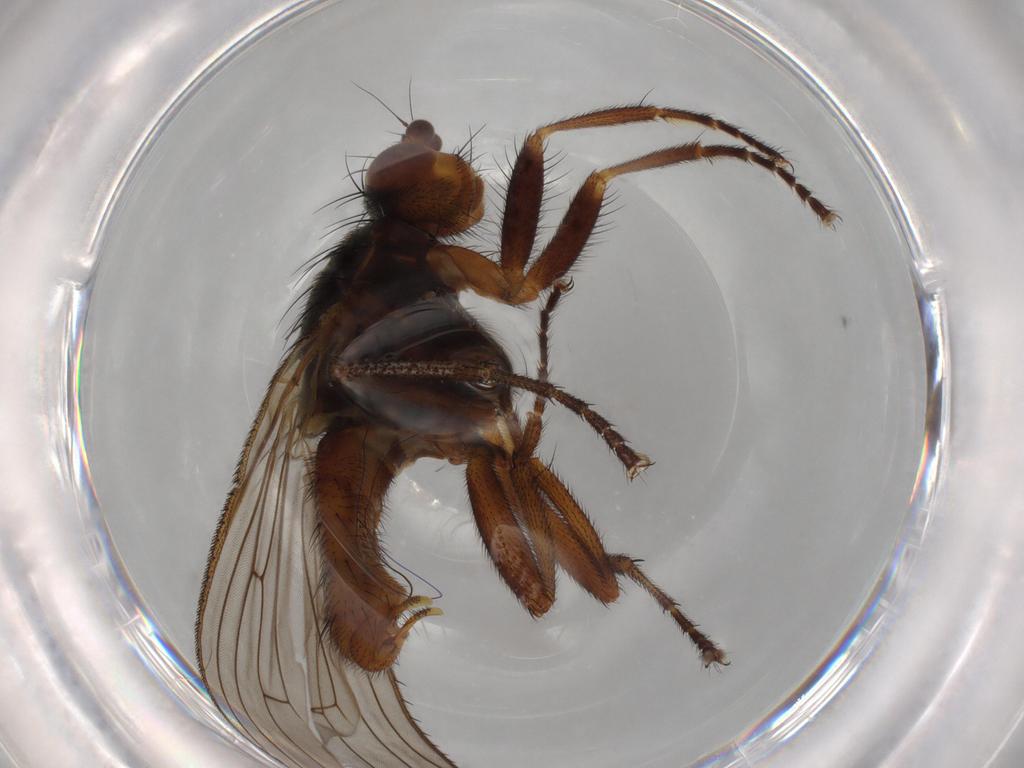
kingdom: Animalia
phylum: Arthropoda
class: Insecta
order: Diptera
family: Heleomyzidae
